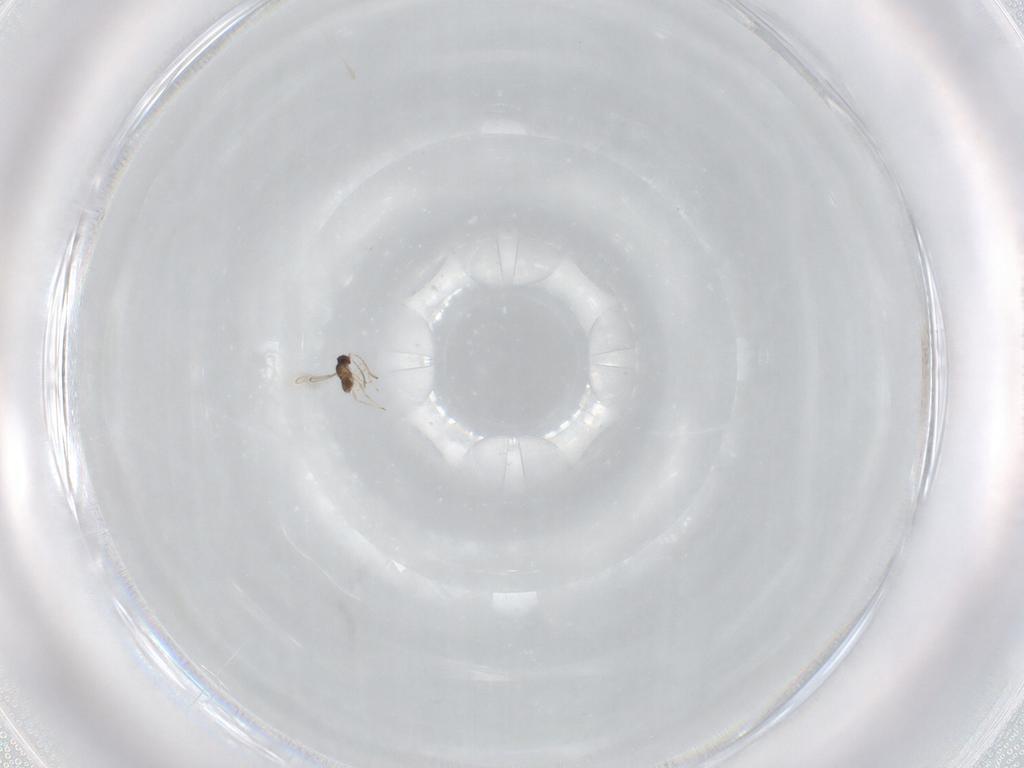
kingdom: Animalia
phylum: Arthropoda
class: Insecta
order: Hymenoptera
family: Mymaridae
